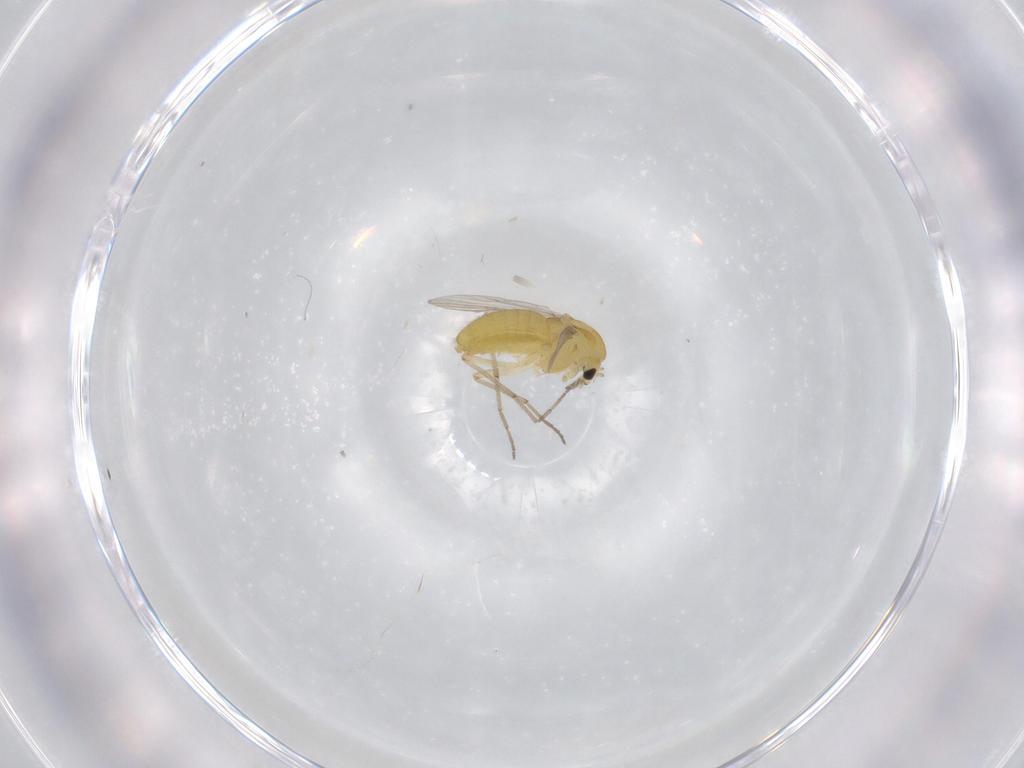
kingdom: Animalia
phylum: Arthropoda
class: Insecta
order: Diptera
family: Chironomidae
